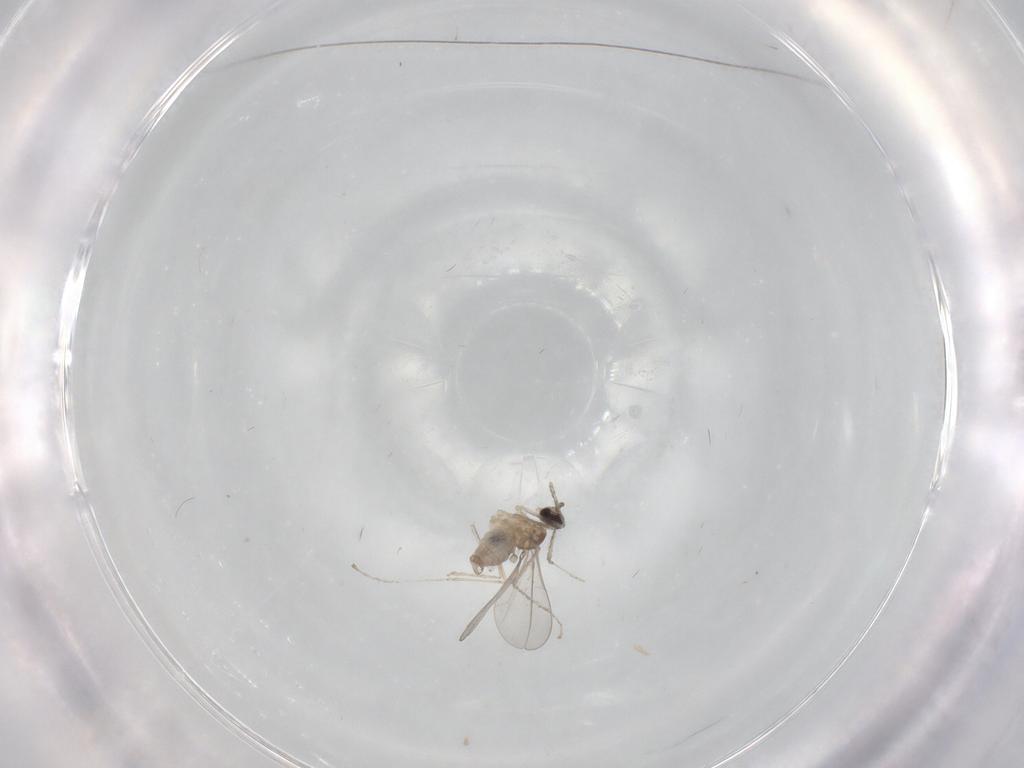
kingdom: Animalia
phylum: Arthropoda
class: Insecta
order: Diptera
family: Cecidomyiidae
